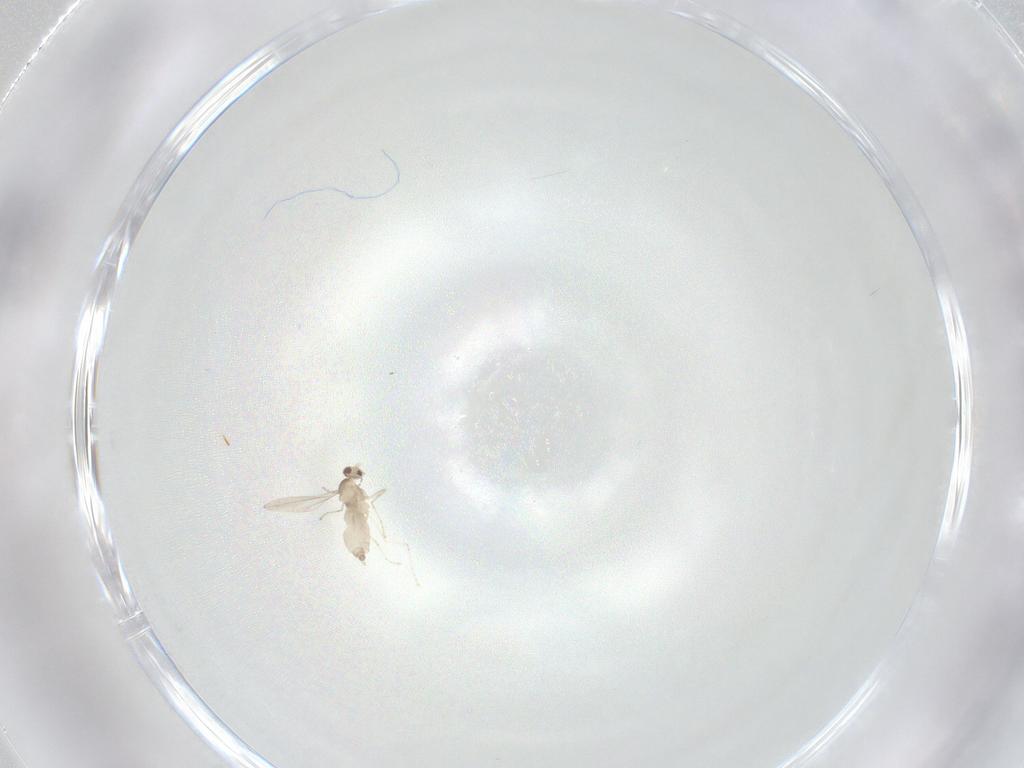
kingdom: Animalia
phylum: Arthropoda
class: Insecta
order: Diptera
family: Cecidomyiidae
